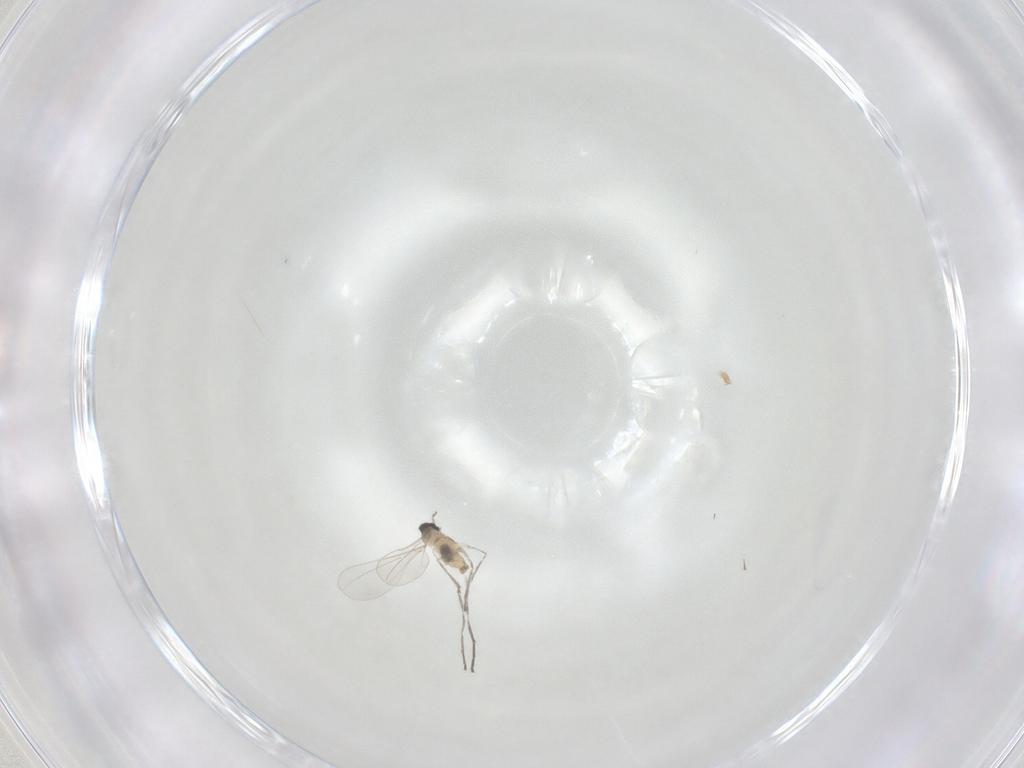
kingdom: Animalia
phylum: Arthropoda
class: Insecta
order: Diptera
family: Cecidomyiidae
